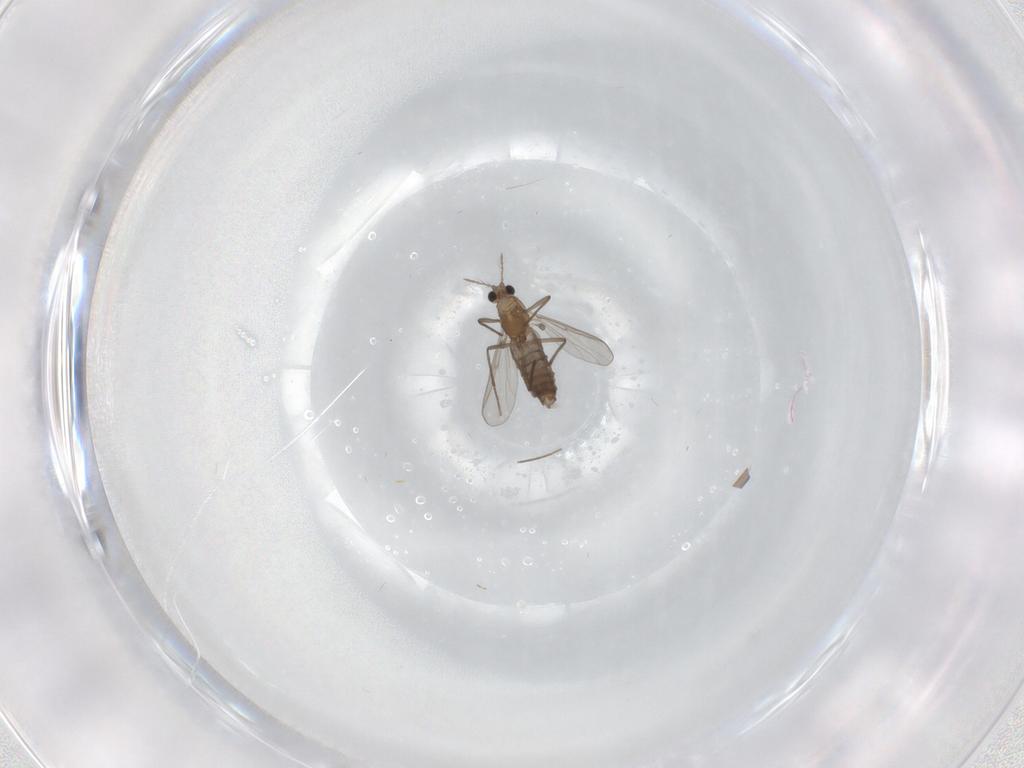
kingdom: Animalia
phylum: Arthropoda
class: Insecta
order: Diptera
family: Chironomidae
